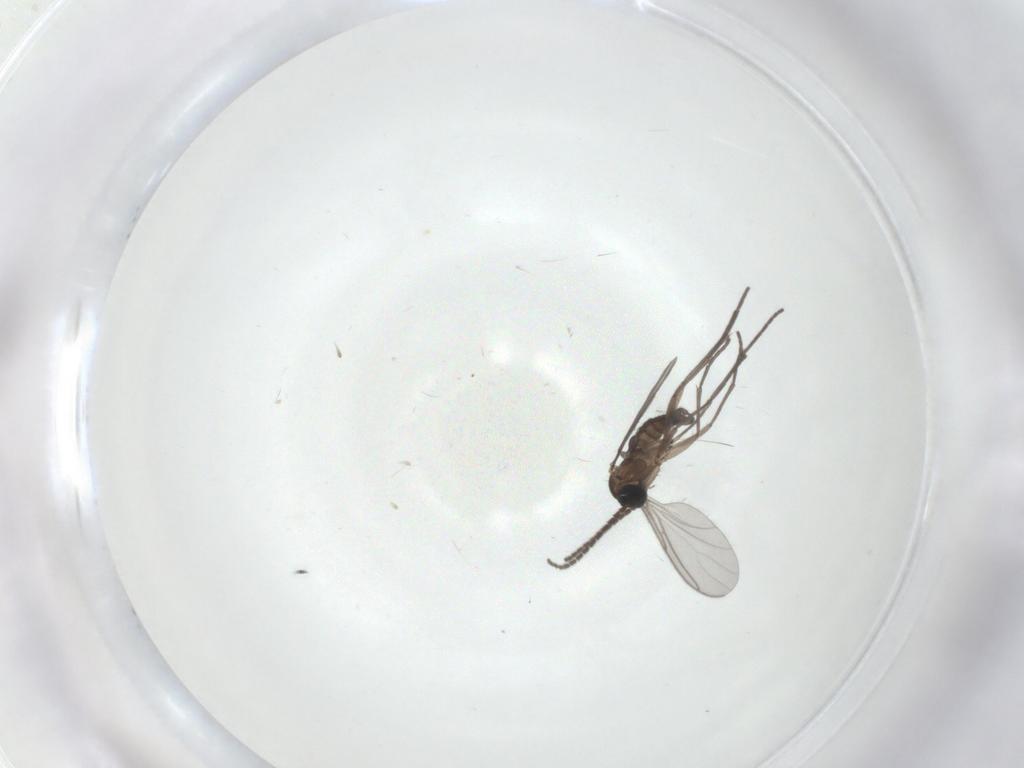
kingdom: Animalia
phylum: Arthropoda
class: Insecta
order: Diptera
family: Sciaridae
